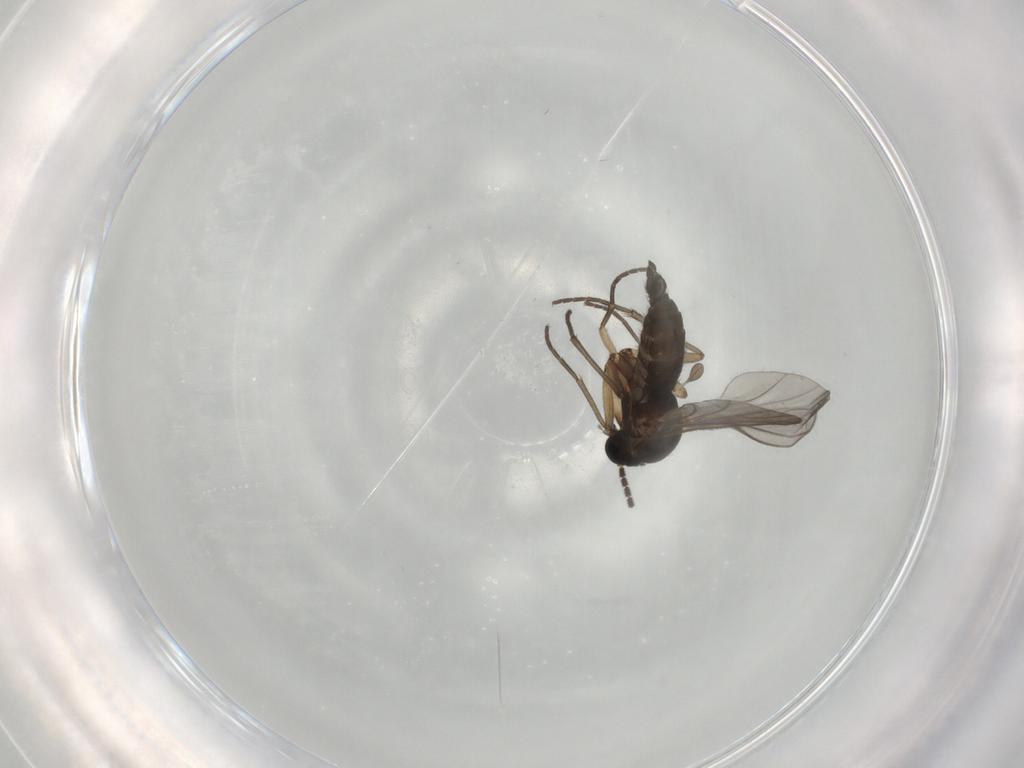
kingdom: Animalia
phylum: Arthropoda
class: Insecta
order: Diptera
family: Sciaridae
